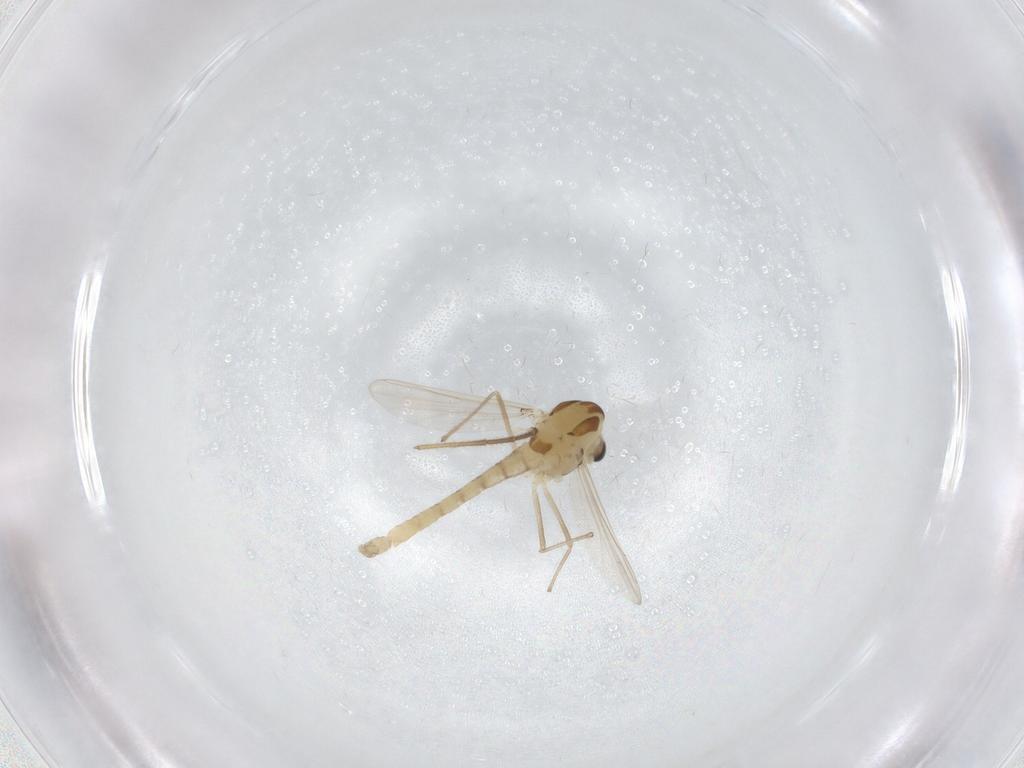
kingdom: Animalia
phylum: Arthropoda
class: Insecta
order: Diptera
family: Chironomidae
